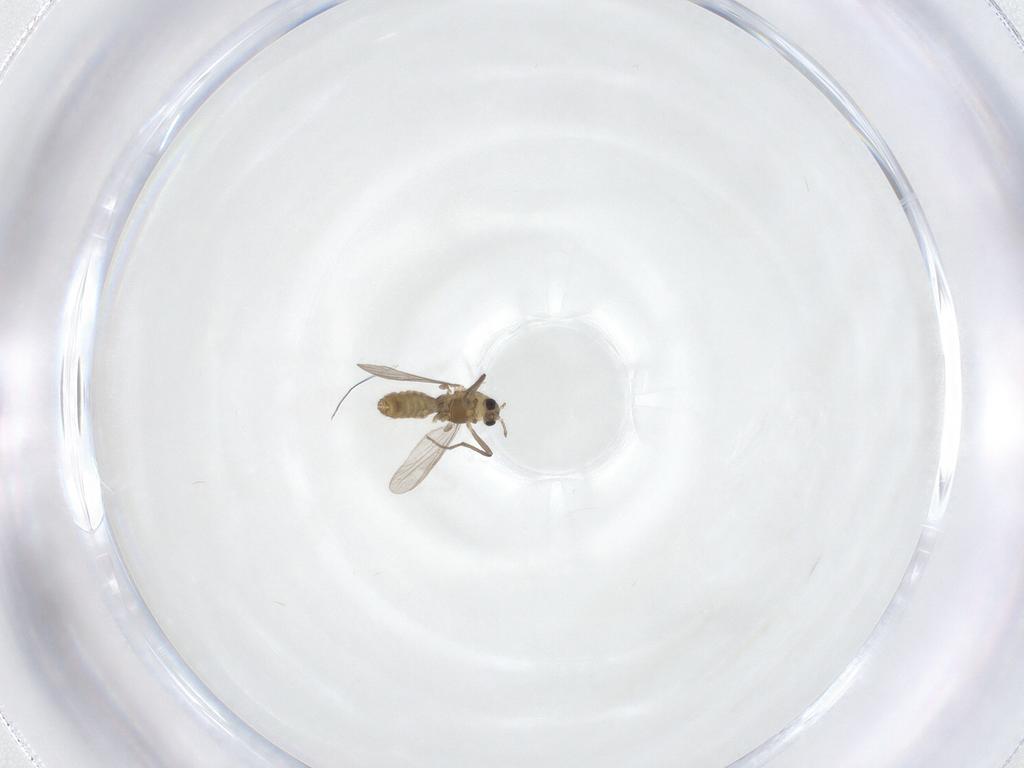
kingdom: Animalia
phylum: Arthropoda
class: Insecta
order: Diptera
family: Chironomidae
